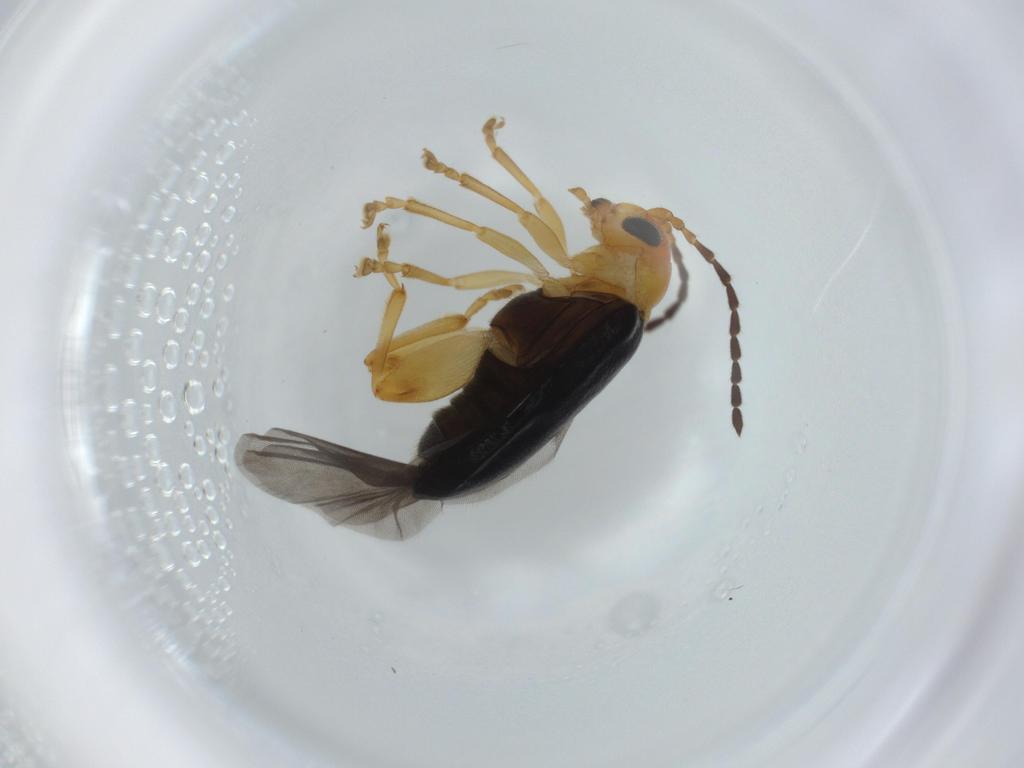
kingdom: Animalia
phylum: Arthropoda
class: Insecta
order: Coleoptera
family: Chrysomelidae
